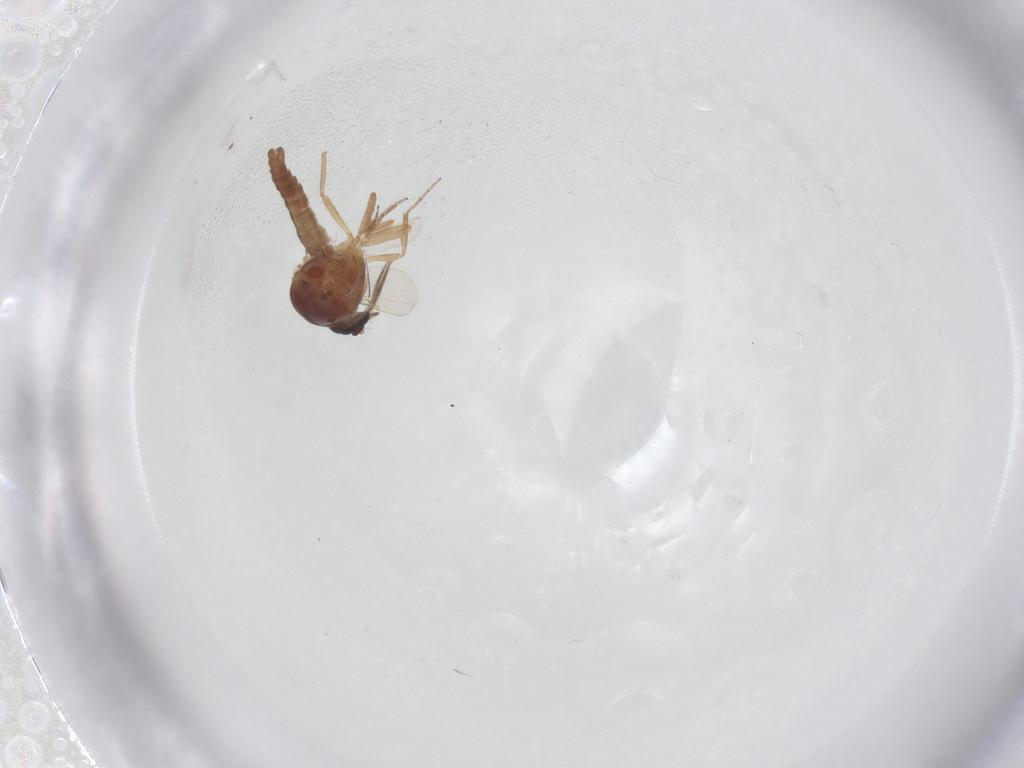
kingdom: Animalia
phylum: Arthropoda
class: Insecta
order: Diptera
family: Ceratopogonidae
